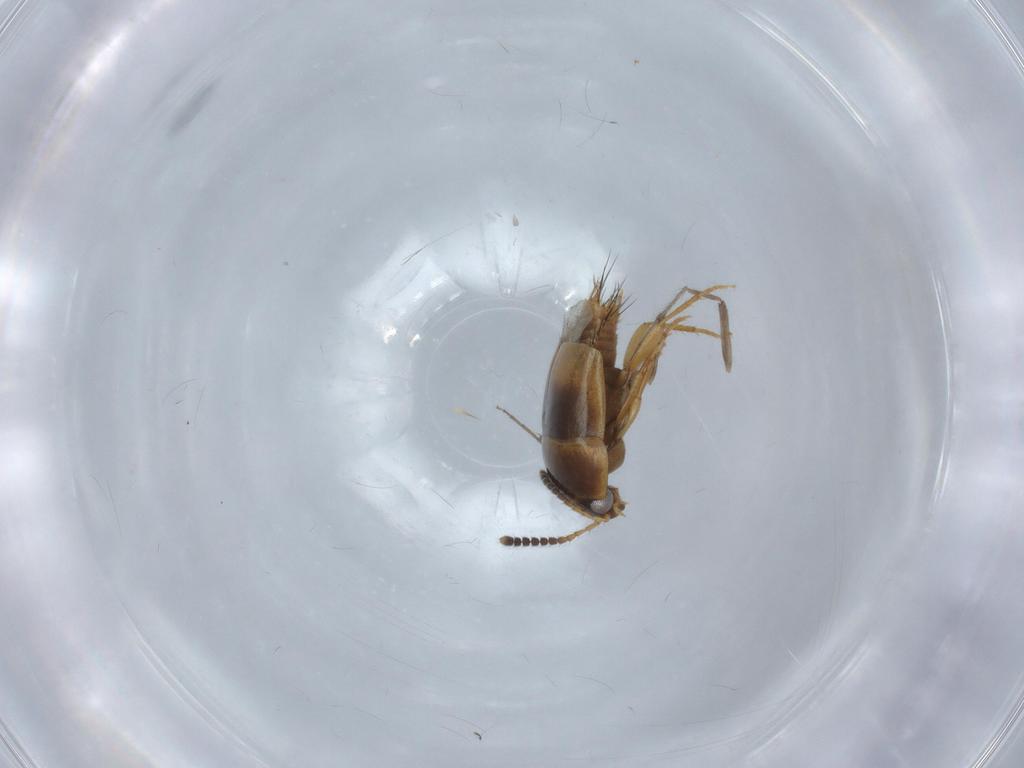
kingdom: Animalia
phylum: Arthropoda
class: Insecta
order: Coleoptera
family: Staphylinidae
